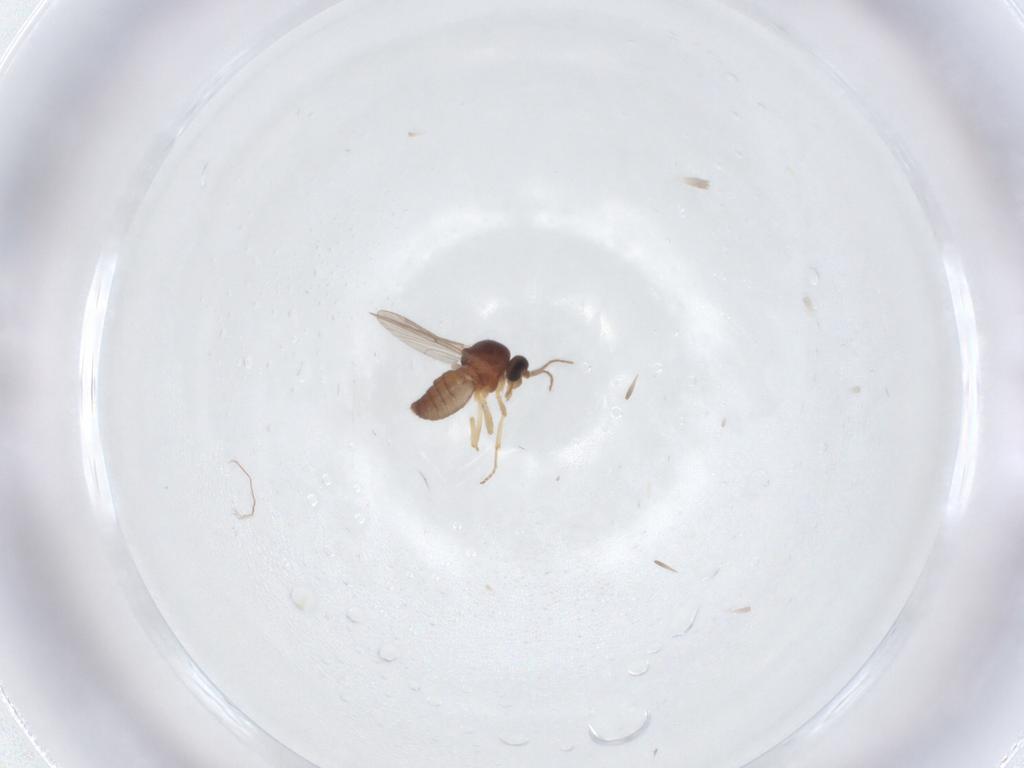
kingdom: Animalia
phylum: Arthropoda
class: Insecta
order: Diptera
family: Ceratopogonidae
